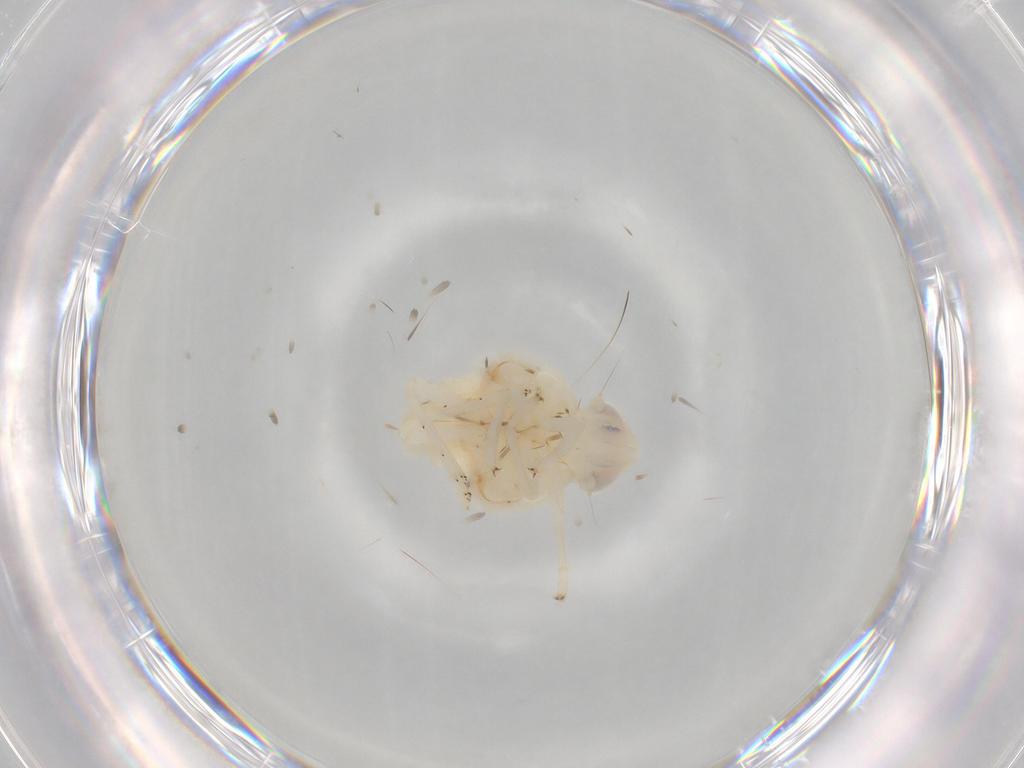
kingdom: Animalia
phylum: Arthropoda
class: Insecta
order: Hemiptera
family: Nogodinidae
